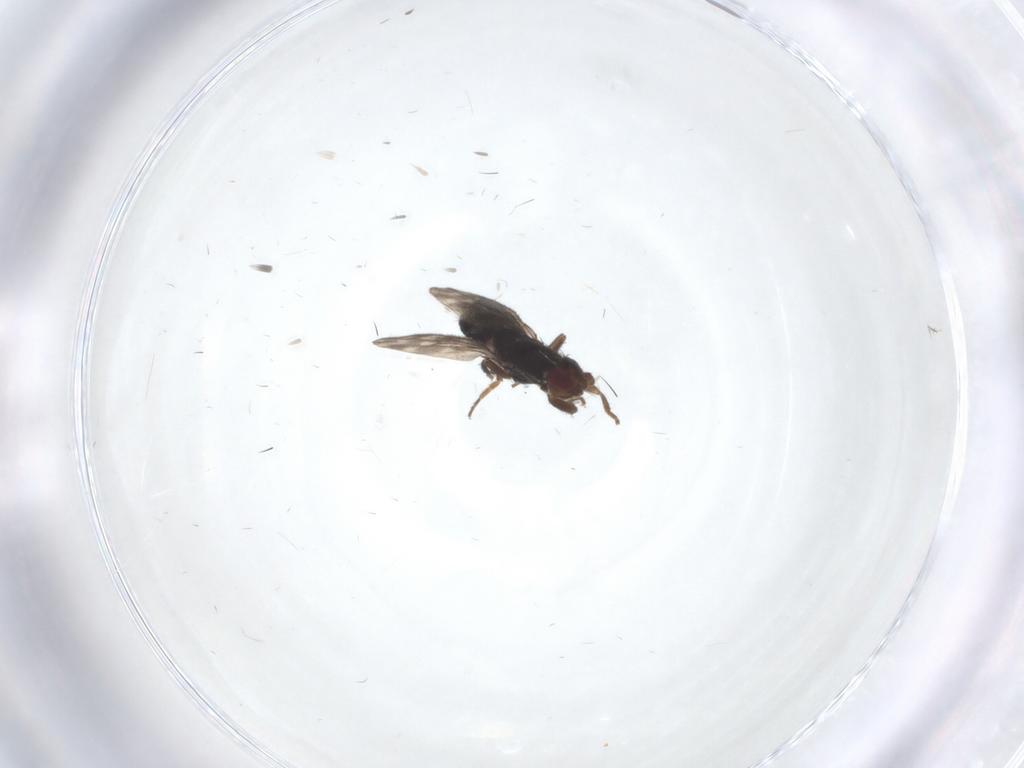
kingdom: Animalia
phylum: Arthropoda
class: Insecta
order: Diptera
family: Sphaeroceridae
